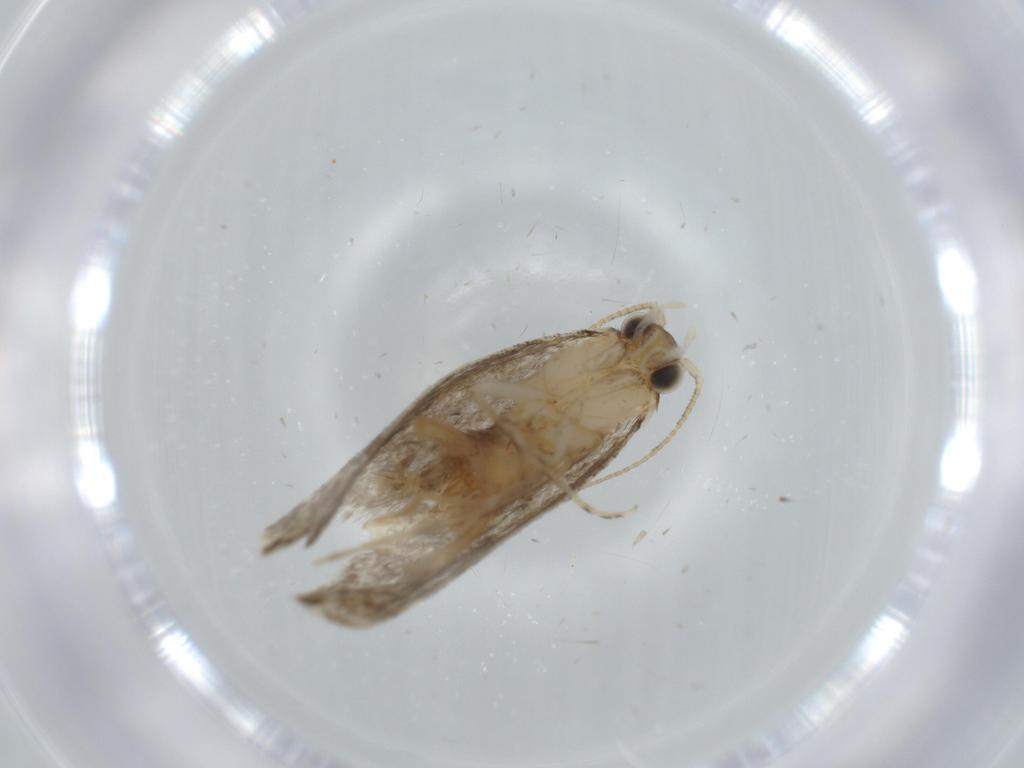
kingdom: Animalia
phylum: Arthropoda
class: Insecta
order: Lepidoptera
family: Tineidae
